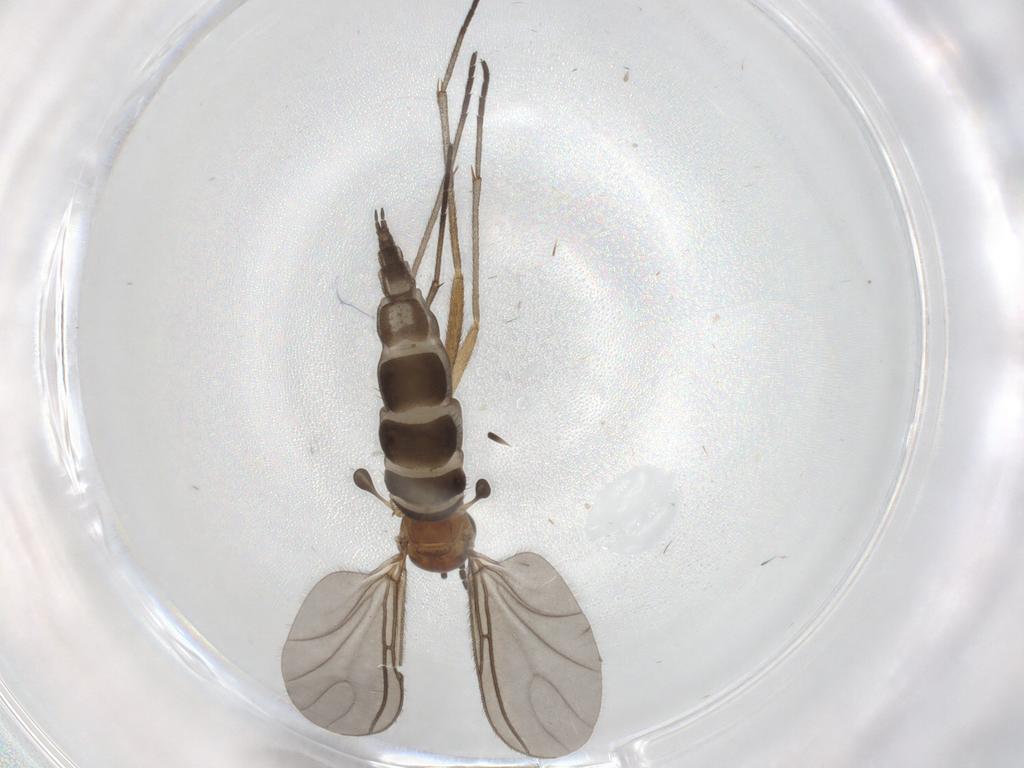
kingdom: Animalia
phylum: Arthropoda
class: Insecta
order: Diptera
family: Sciaridae
